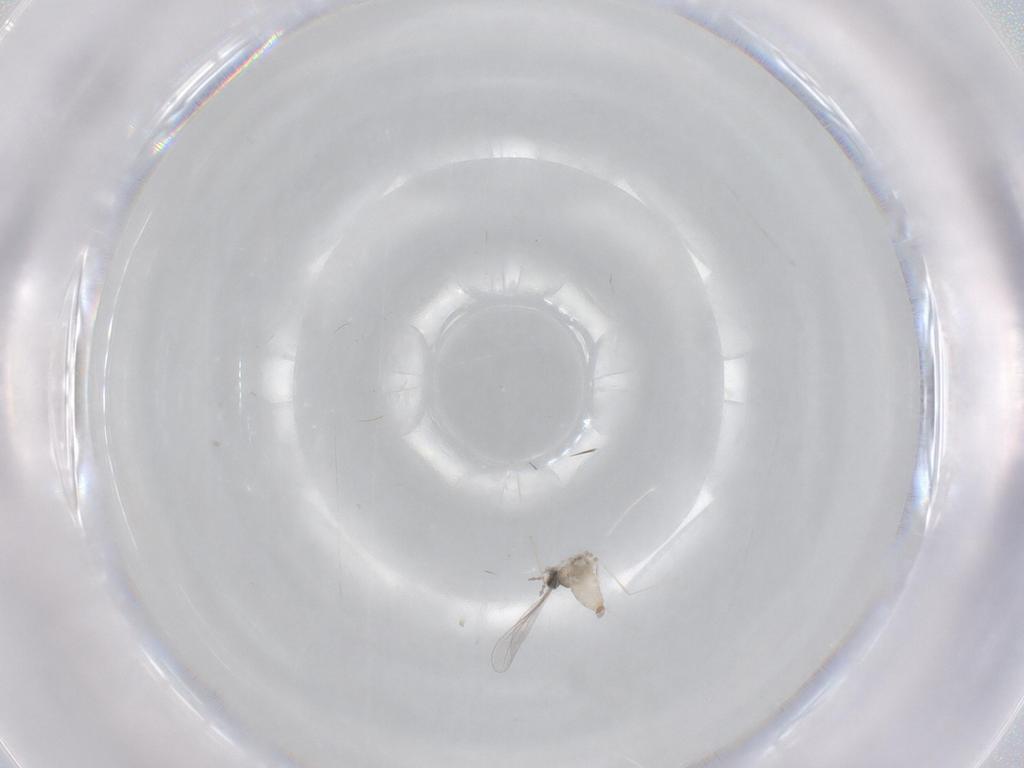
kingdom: Animalia
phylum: Arthropoda
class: Insecta
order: Diptera
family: Cecidomyiidae
